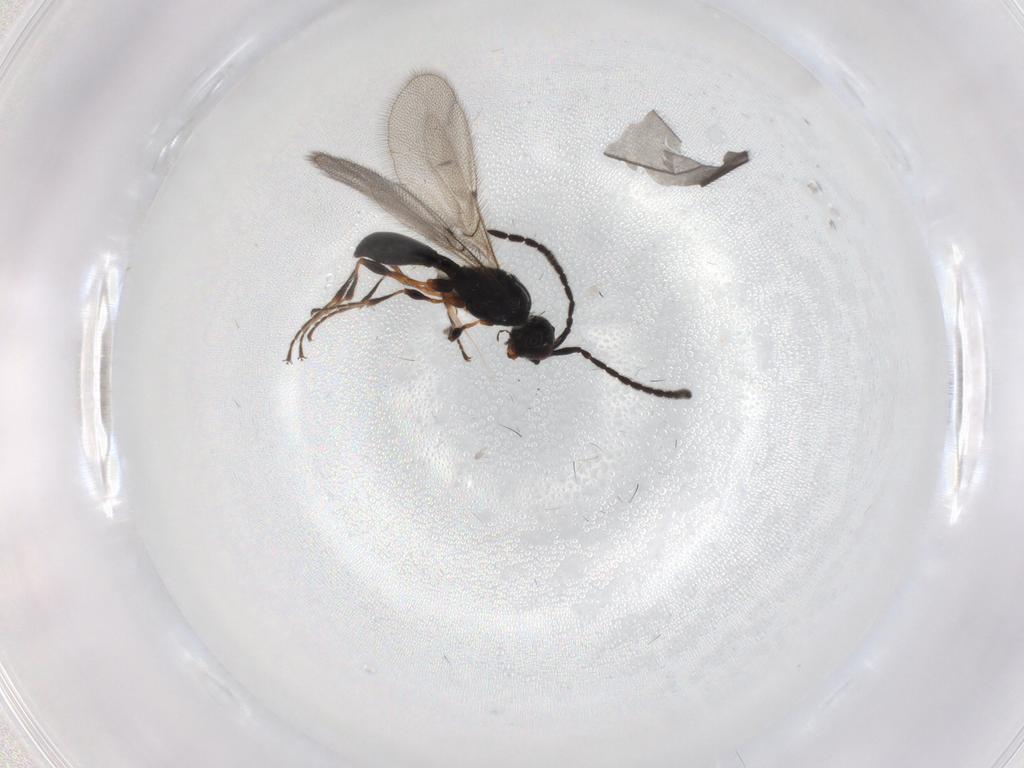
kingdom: Animalia
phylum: Arthropoda
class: Insecta
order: Hymenoptera
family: Diapriidae
